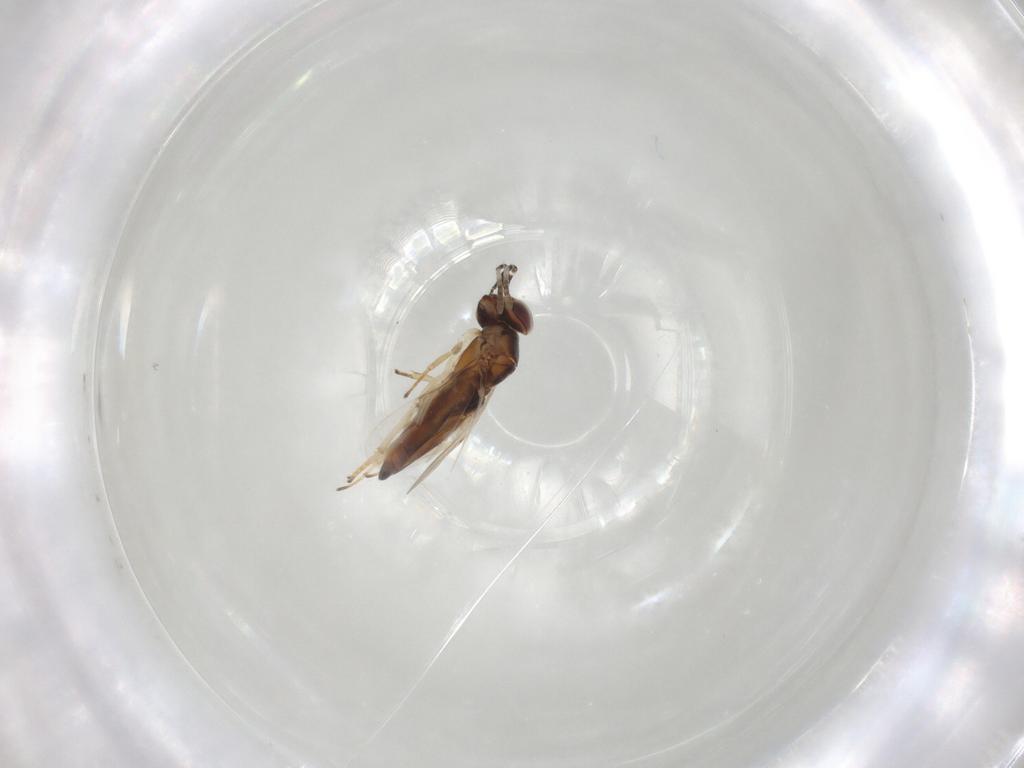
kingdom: Animalia
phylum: Arthropoda
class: Insecta
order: Hymenoptera
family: Encyrtidae
